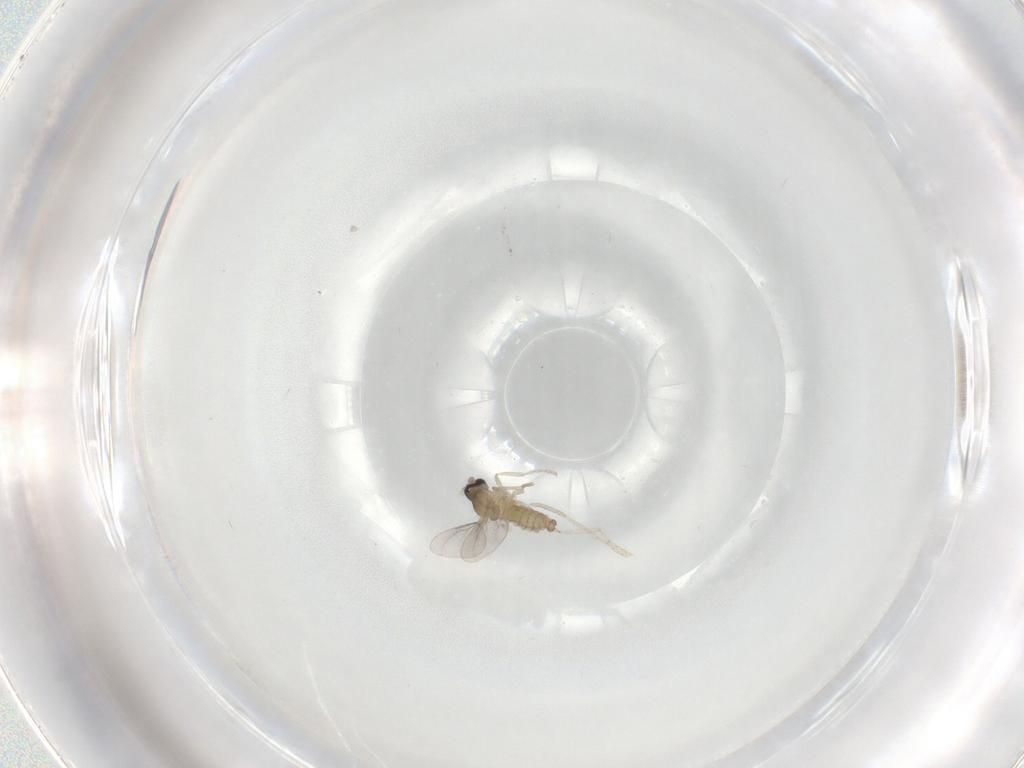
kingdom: Animalia
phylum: Arthropoda
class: Insecta
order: Diptera
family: Cecidomyiidae
